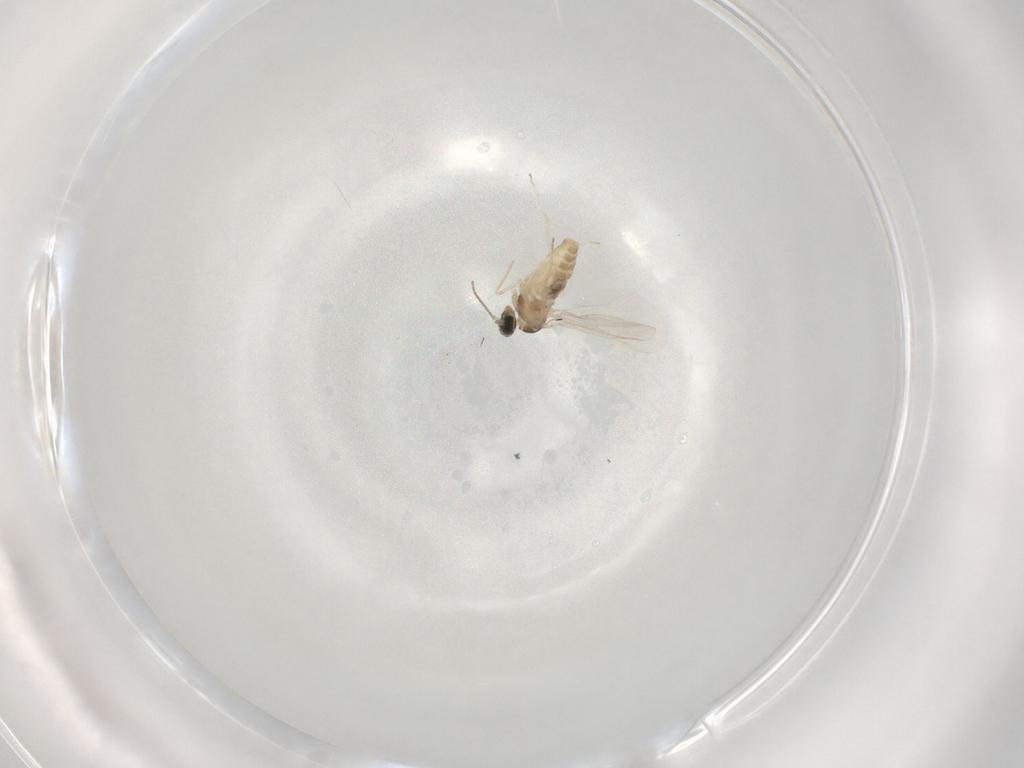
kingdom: Animalia
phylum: Arthropoda
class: Insecta
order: Diptera
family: Cecidomyiidae
